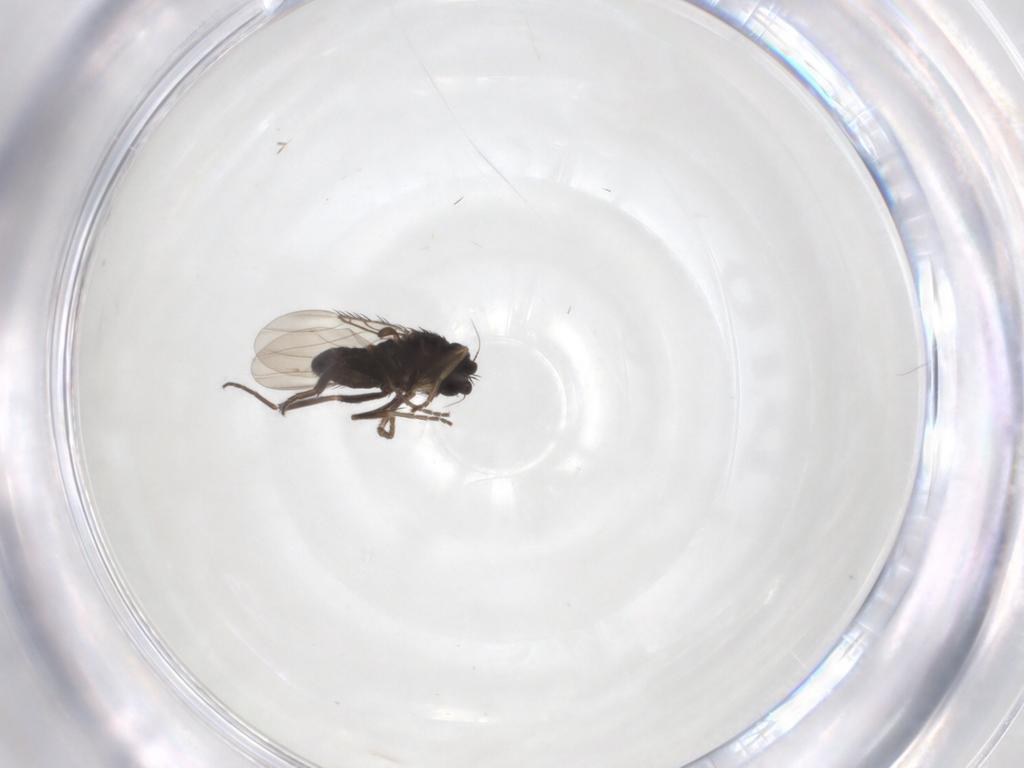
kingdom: Animalia
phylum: Arthropoda
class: Insecta
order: Diptera
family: Phoridae
